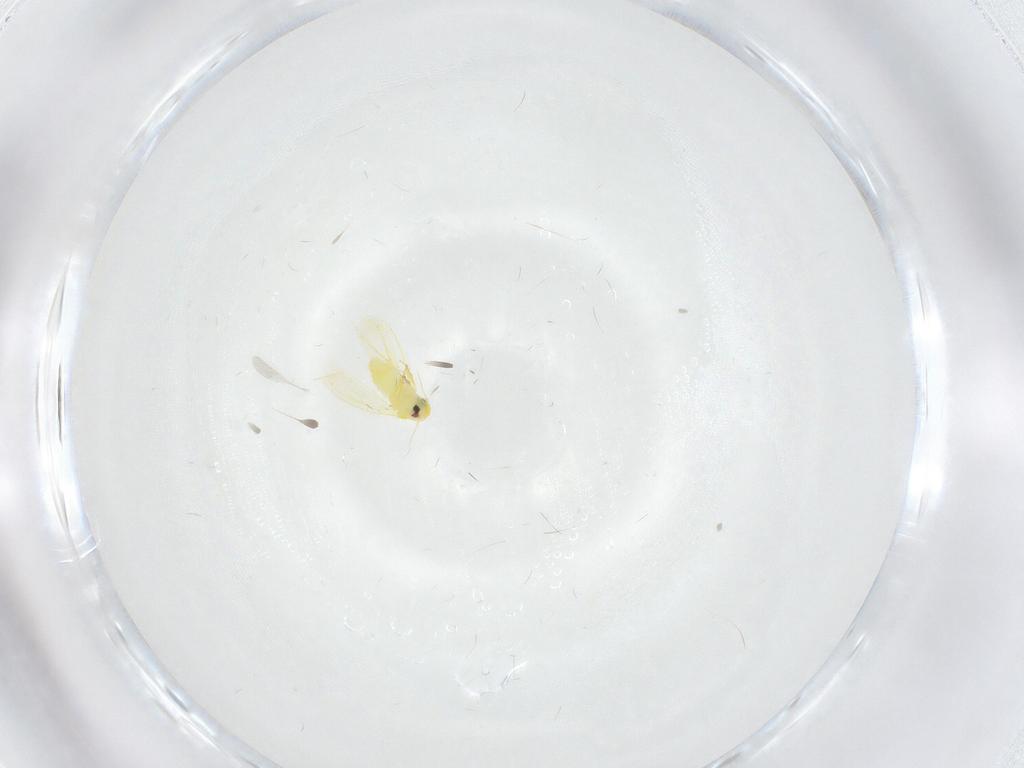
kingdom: Animalia
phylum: Arthropoda
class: Insecta
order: Hemiptera
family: Aleyrodidae
